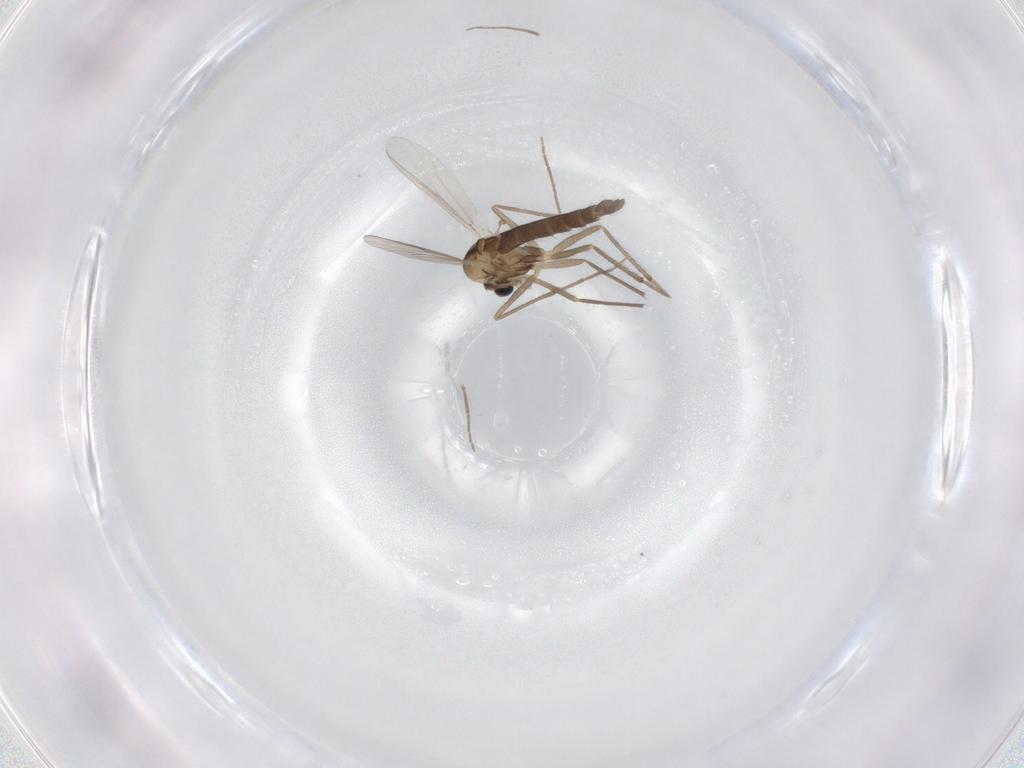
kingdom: Animalia
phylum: Arthropoda
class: Insecta
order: Diptera
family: Chironomidae
